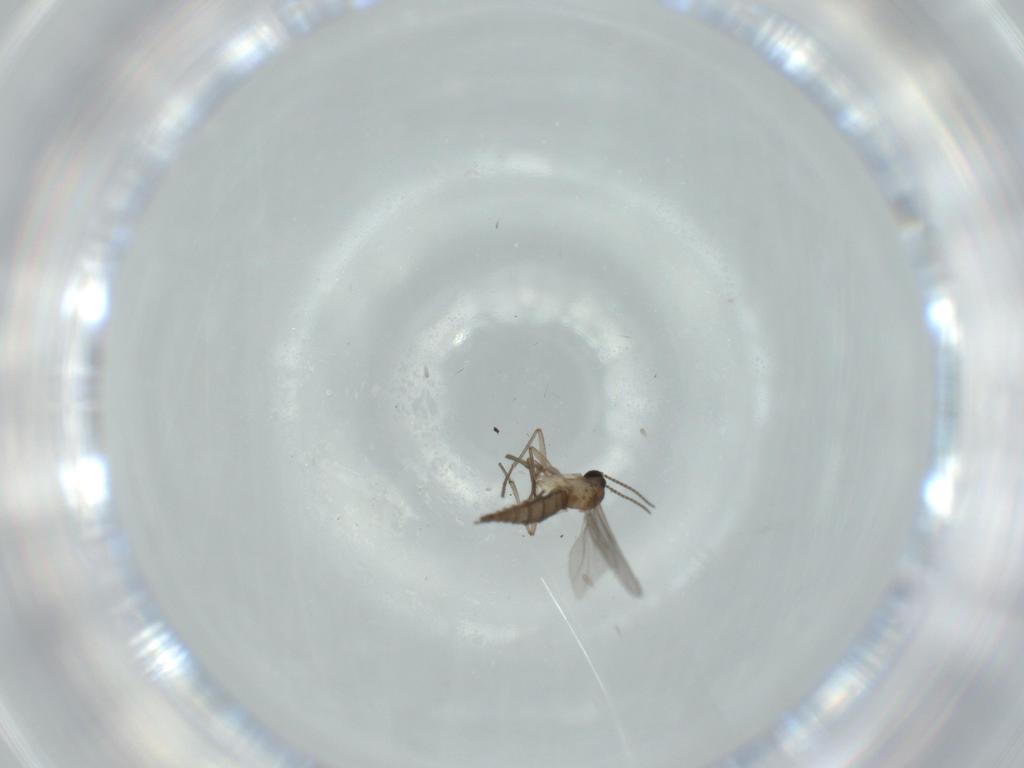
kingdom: Animalia
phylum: Arthropoda
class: Insecta
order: Diptera
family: Sciaridae
